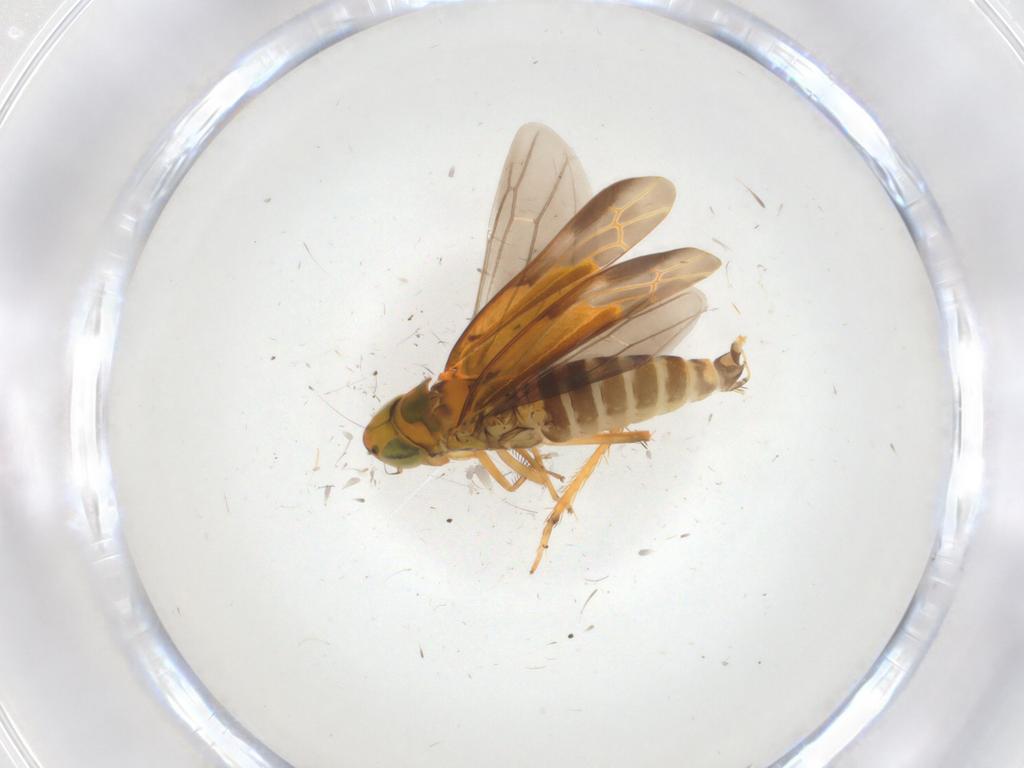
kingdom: Animalia
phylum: Arthropoda
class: Insecta
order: Hemiptera
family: Cicadellidae
